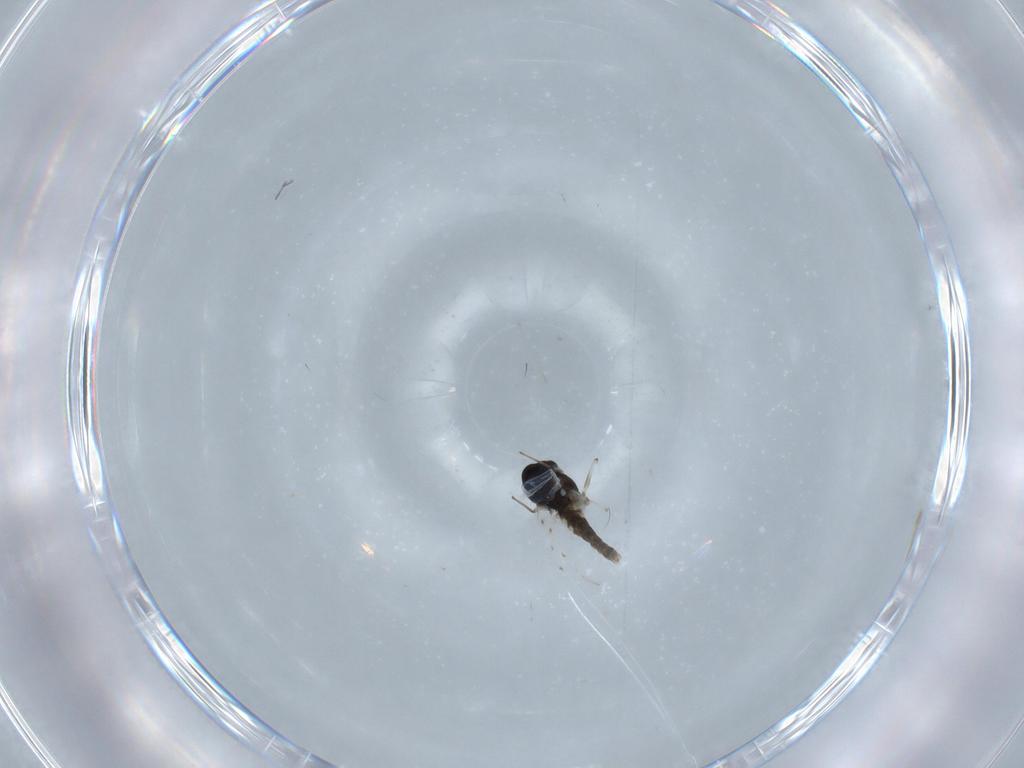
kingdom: Animalia
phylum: Arthropoda
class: Insecta
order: Diptera
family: Chironomidae
